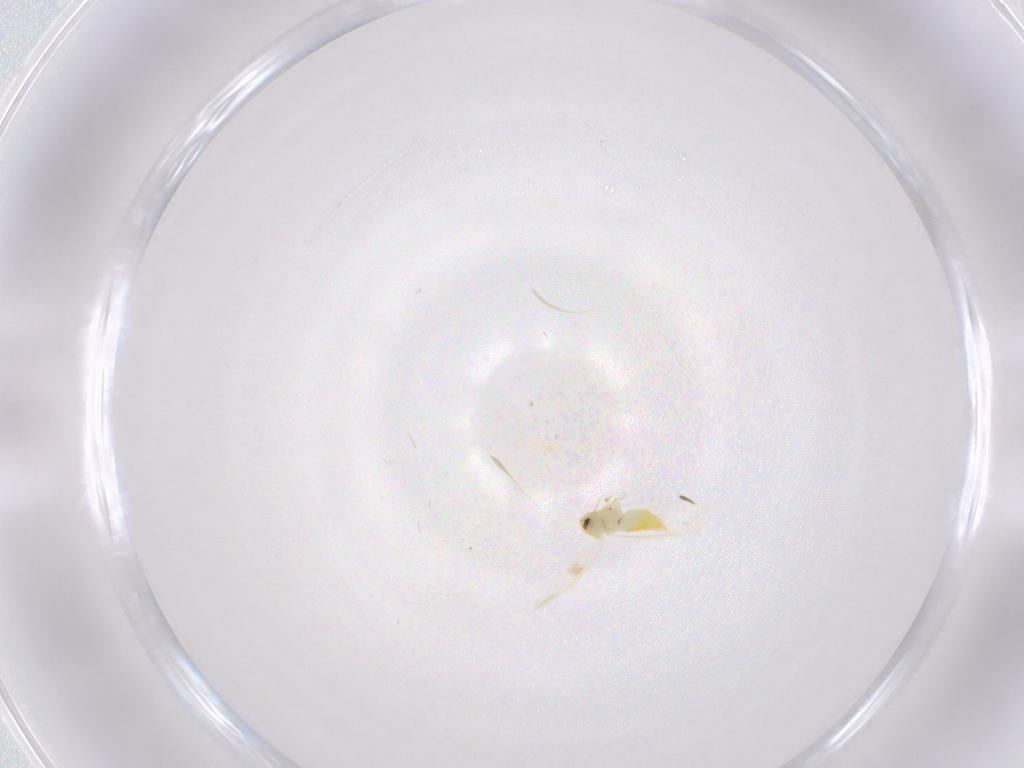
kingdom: Animalia
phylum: Arthropoda
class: Insecta
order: Hemiptera
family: Aleyrodidae
